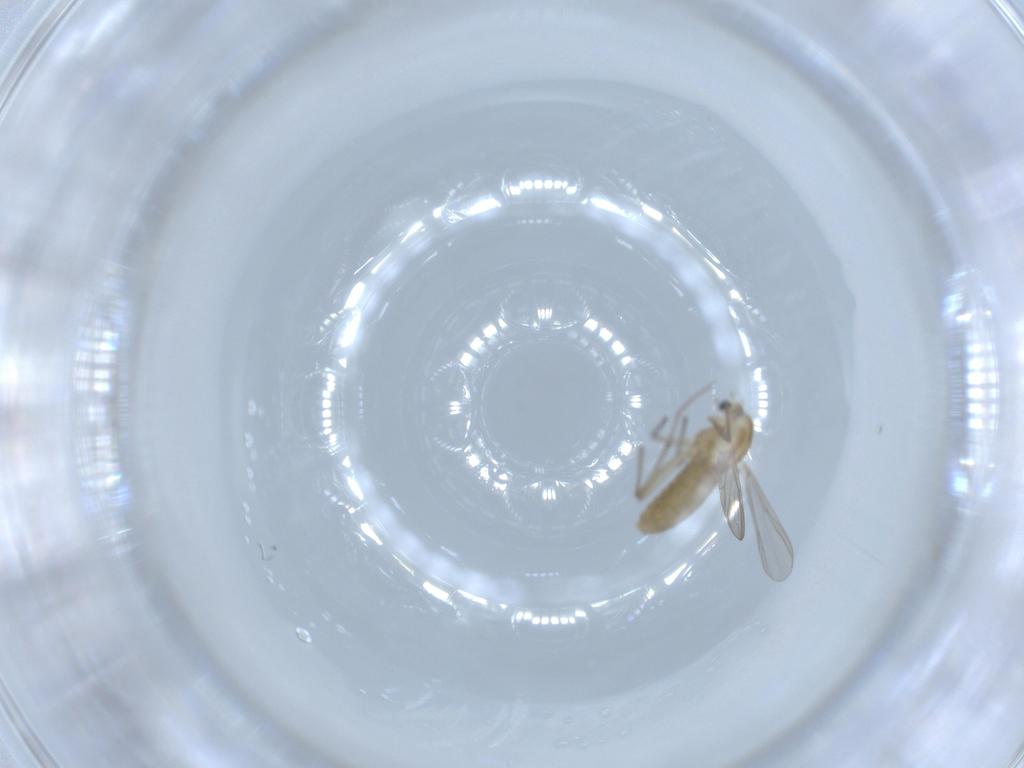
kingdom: Animalia
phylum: Arthropoda
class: Insecta
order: Diptera
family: Chironomidae
